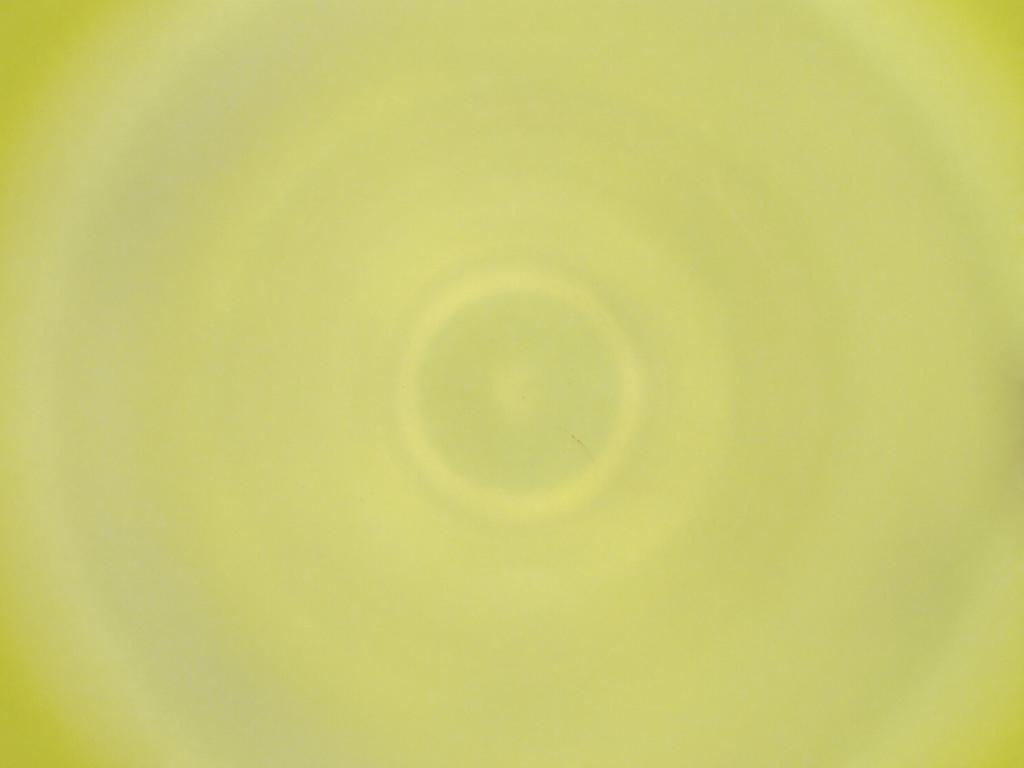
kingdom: Animalia
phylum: Arthropoda
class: Insecta
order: Diptera
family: Cecidomyiidae
